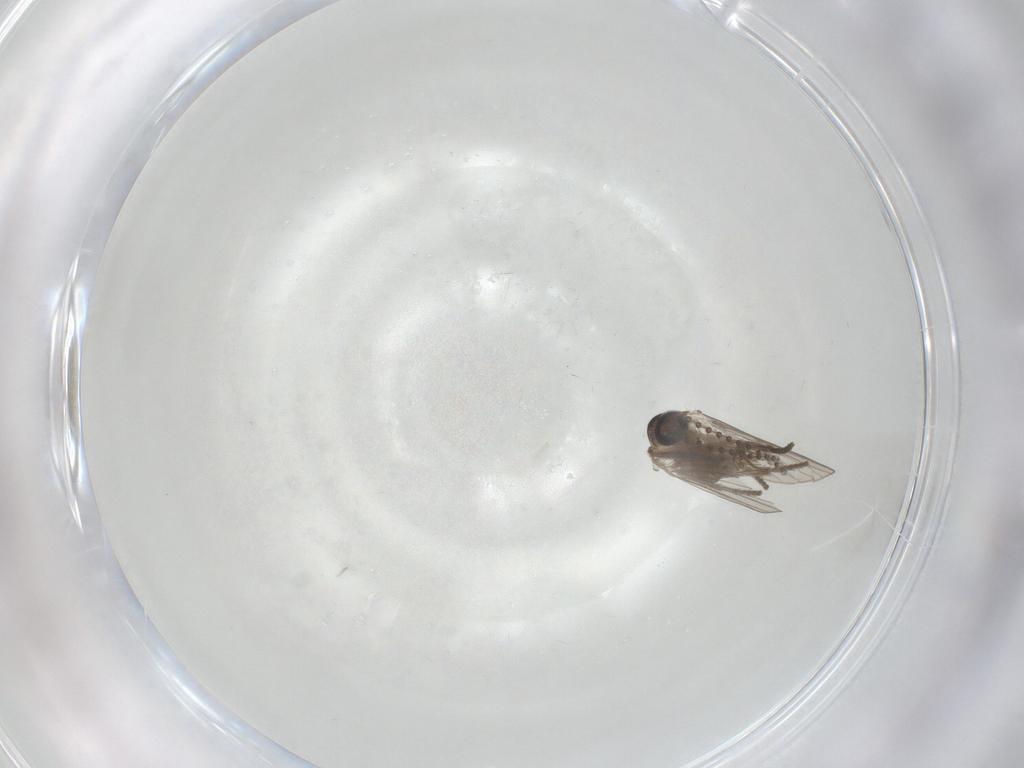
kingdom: Animalia
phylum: Arthropoda
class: Insecta
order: Diptera
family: Psychodidae
